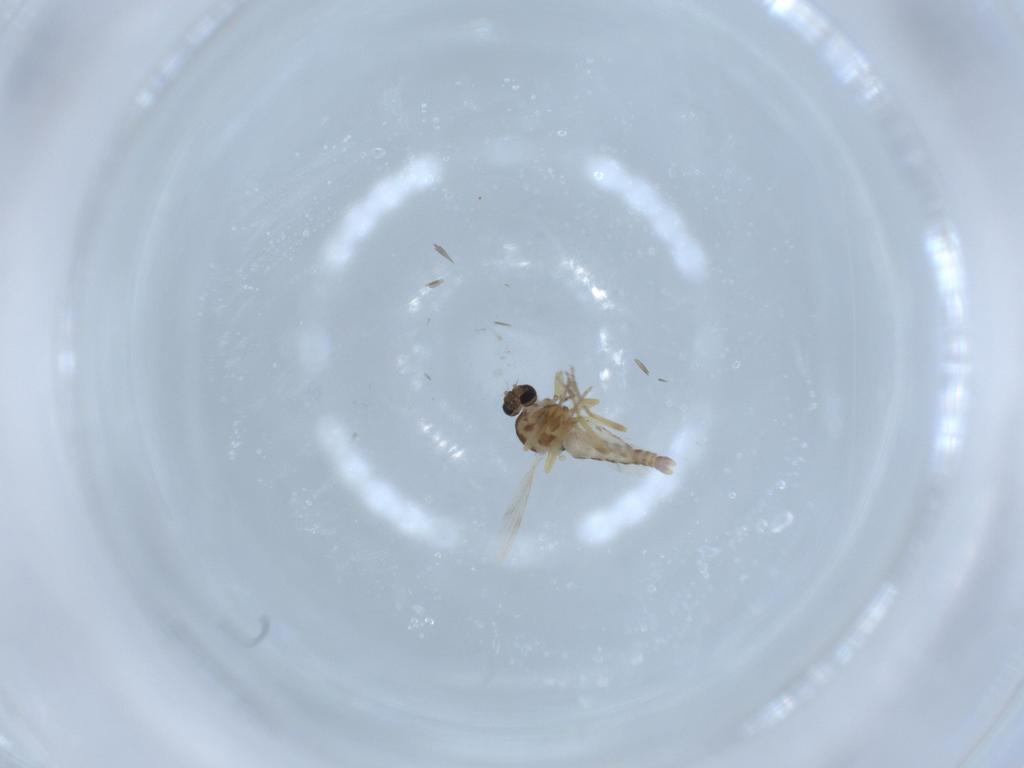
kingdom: Animalia
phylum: Arthropoda
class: Insecta
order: Diptera
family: Ceratopogonidae
